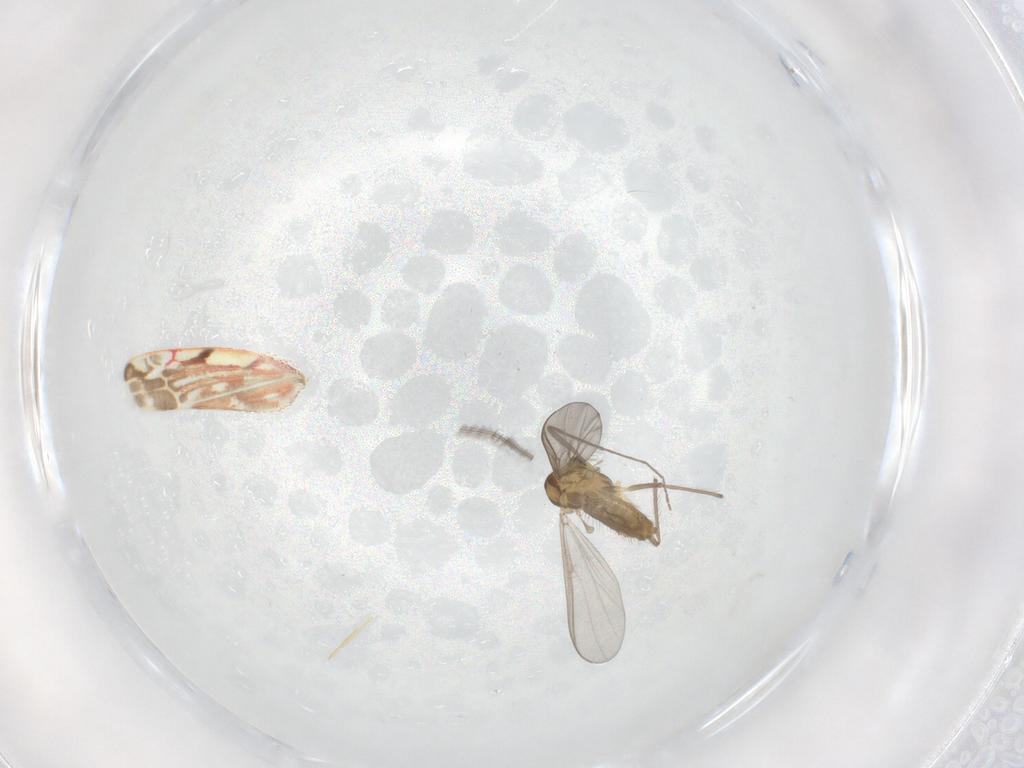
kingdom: Animalia
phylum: Arthropoda
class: Insecta
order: Diptera
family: Chironomidae
